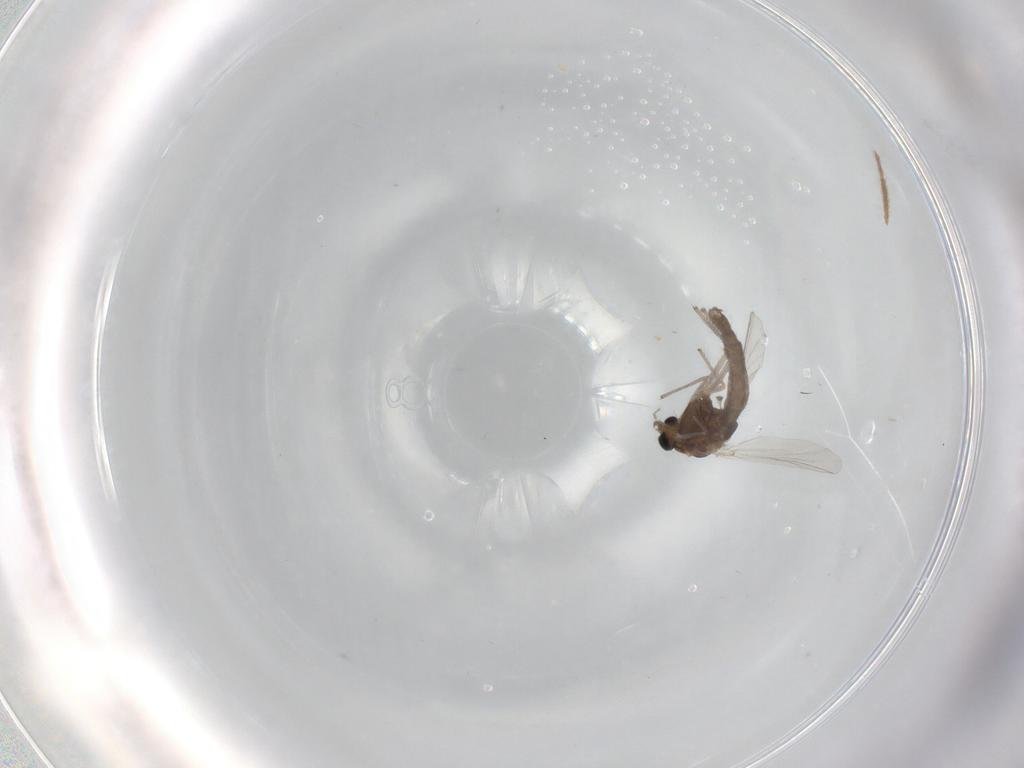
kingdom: Animalia
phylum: Arthropoda
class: Insecta
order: Diptera
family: Chironomidae
